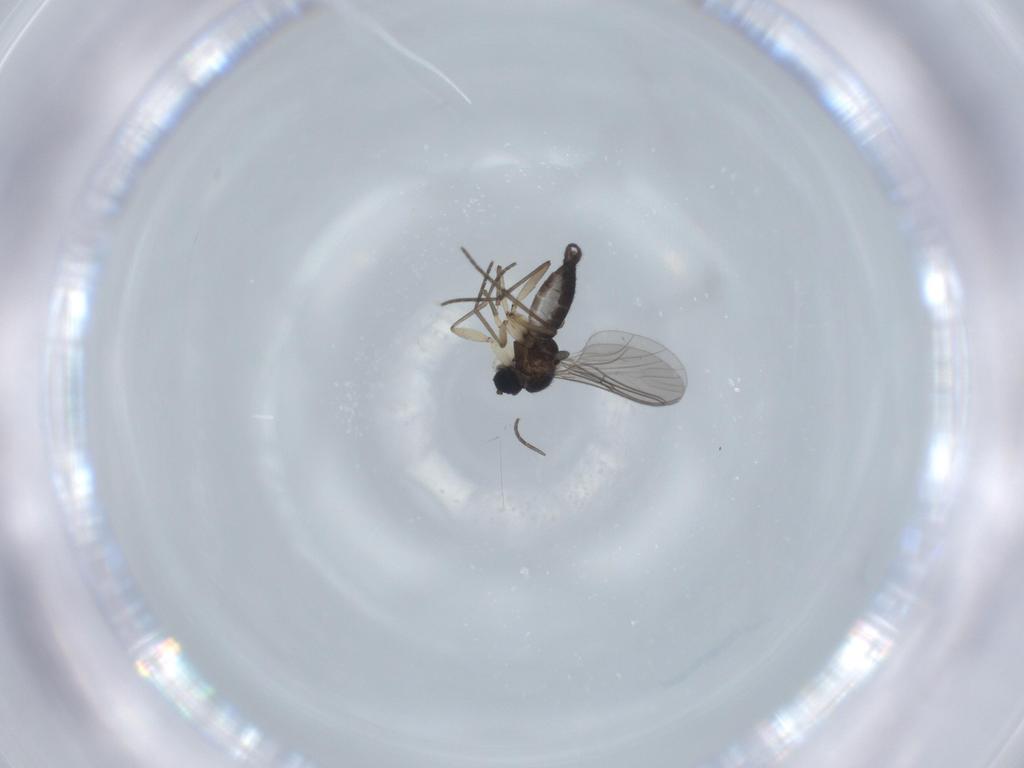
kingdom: Animalia
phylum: Arthropoda
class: Insecta
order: Diptera
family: Sciaridae
